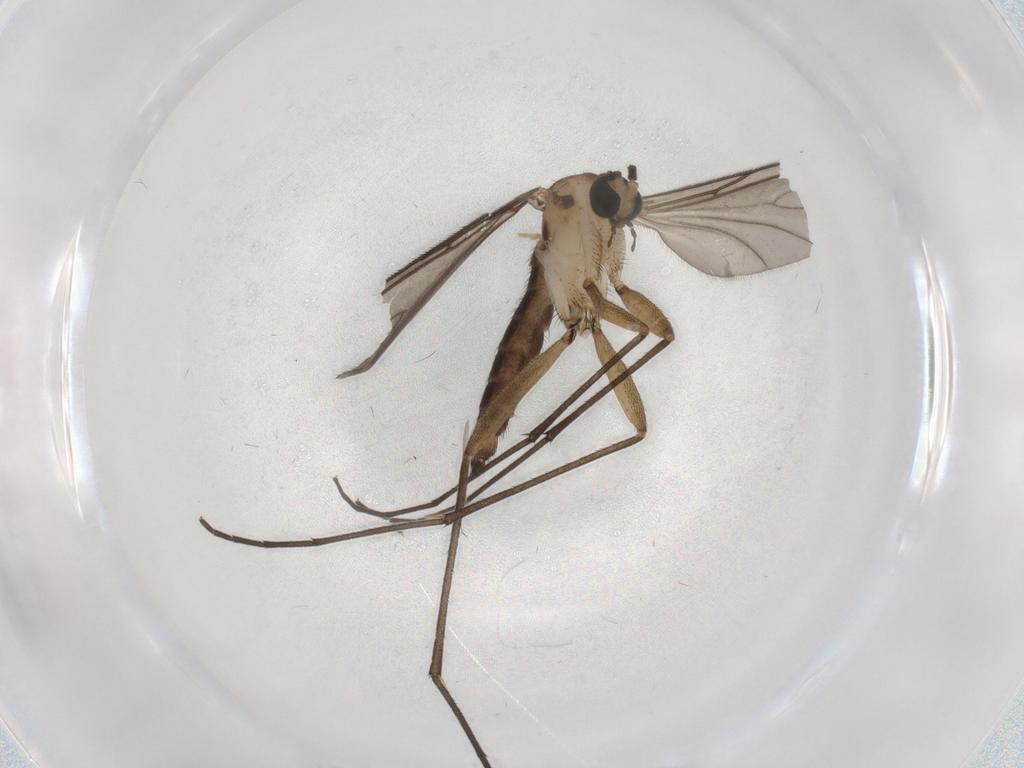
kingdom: Animalia
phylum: Arthropoda
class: Insecta
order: Diptera
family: Sciaridae
